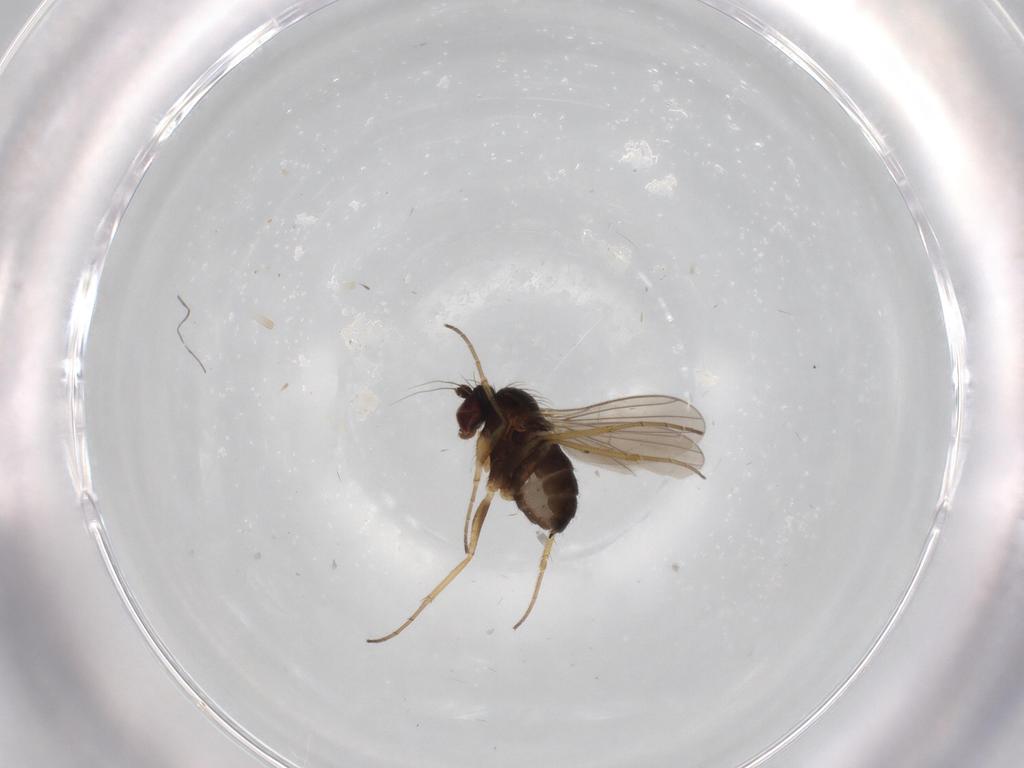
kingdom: Animalia
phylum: Arthropoda
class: Insecta
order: Diptera
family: Dolichopodidae
